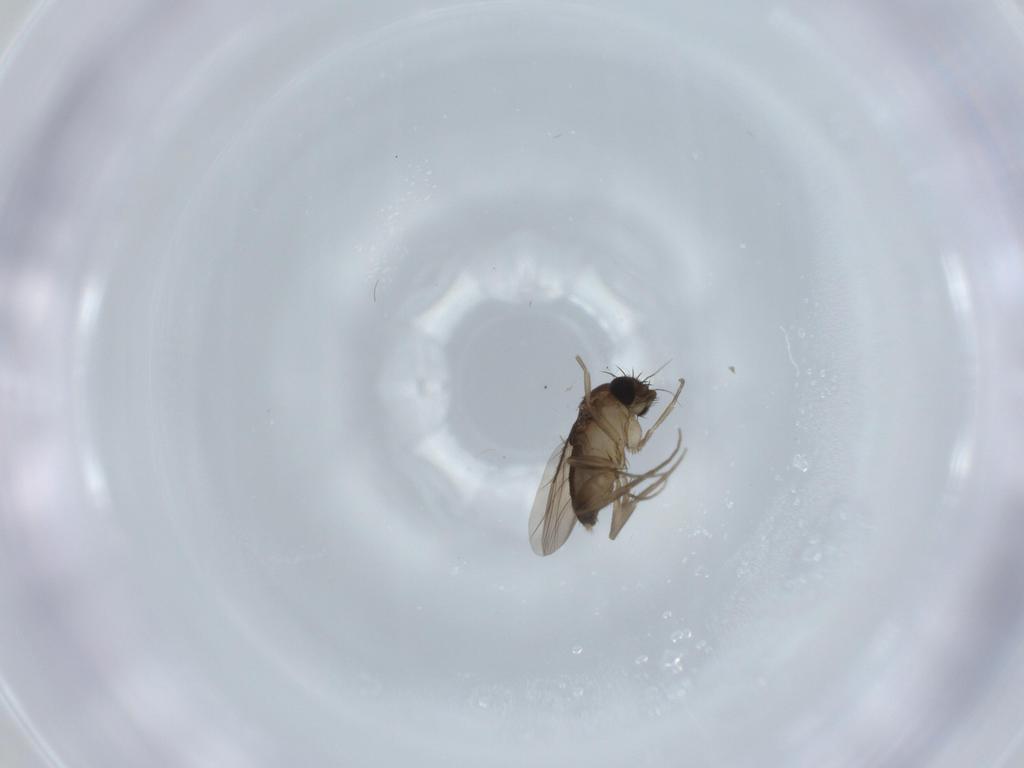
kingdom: Animalia
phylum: Arthropoda
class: Insecta
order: Diptera
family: Phoridae
